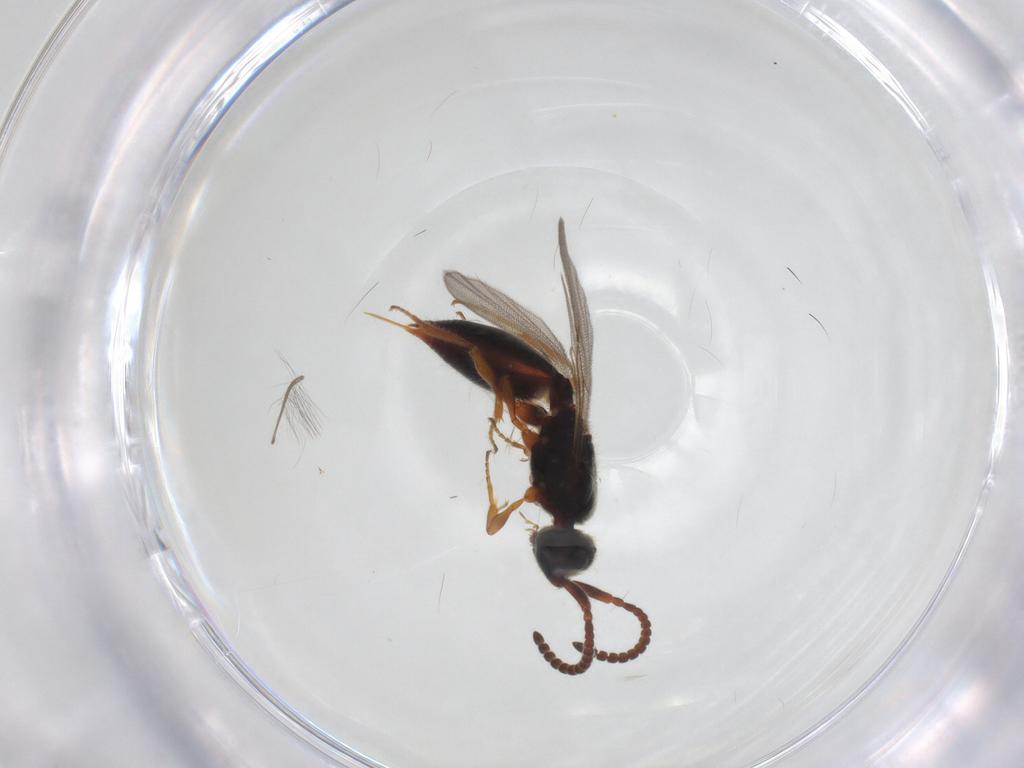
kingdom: Animalia
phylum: Arthropoda
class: Insecta
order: Hymenoptera
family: Diapriidae
